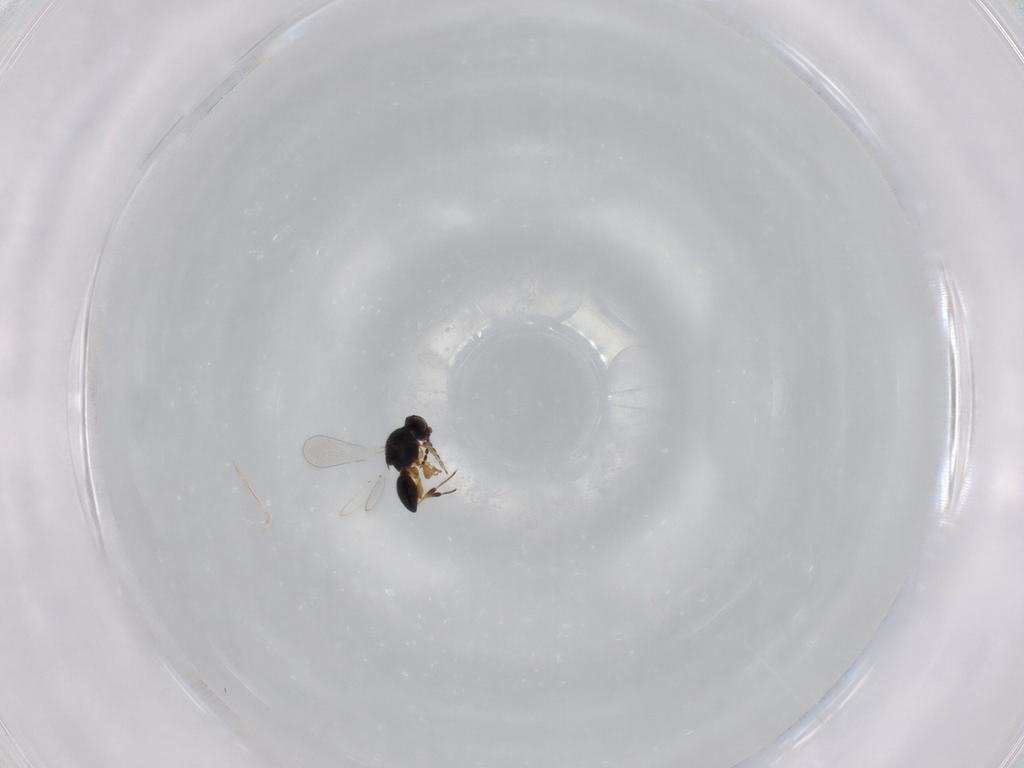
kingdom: Animalia
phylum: Arthropoda
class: Insecta
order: Hymenoptera
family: Platygastridae
